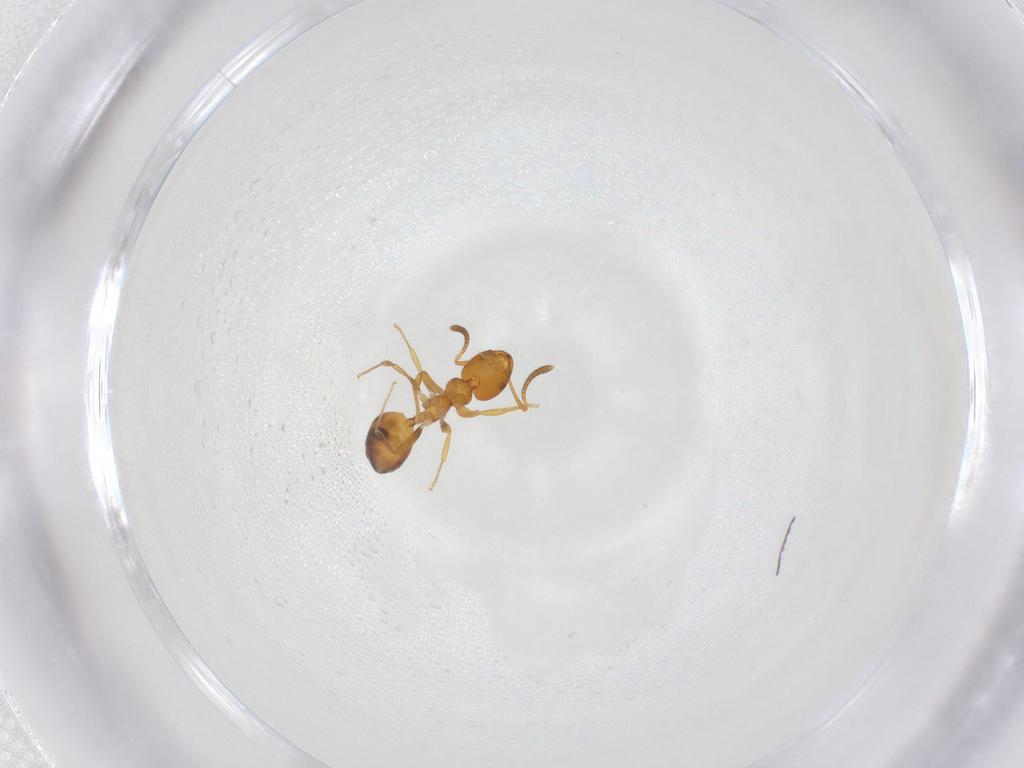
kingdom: Animalia
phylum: Arthropoda
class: Insecta
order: Hymenoptera
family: Formicidae
